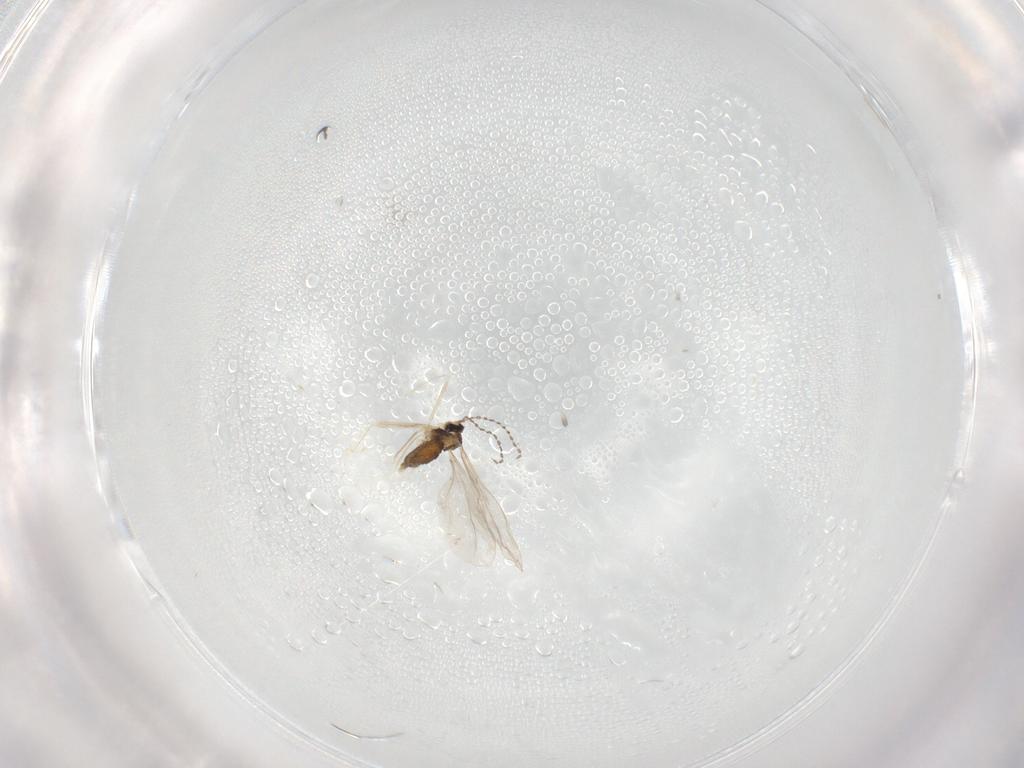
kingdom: Animalia
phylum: Arthropoda
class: Insecta
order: Diptera
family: Cecidomyiidae
